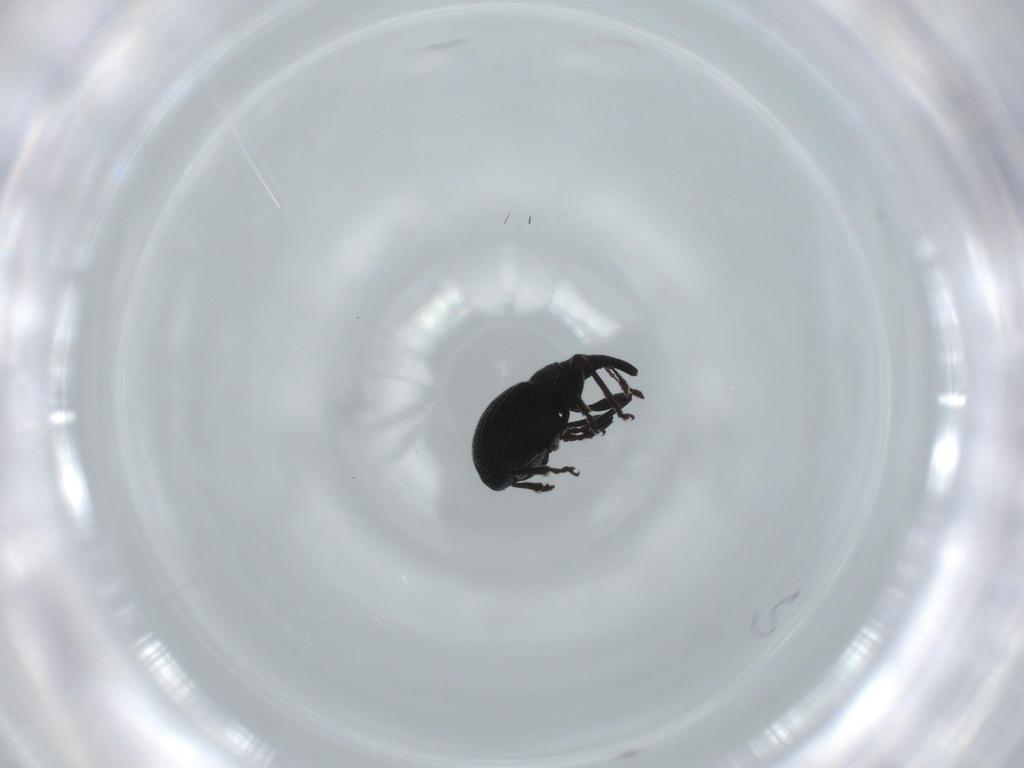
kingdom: Animalia
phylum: Arthropoda
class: Insecta
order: Coleoptera
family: Brentidae
